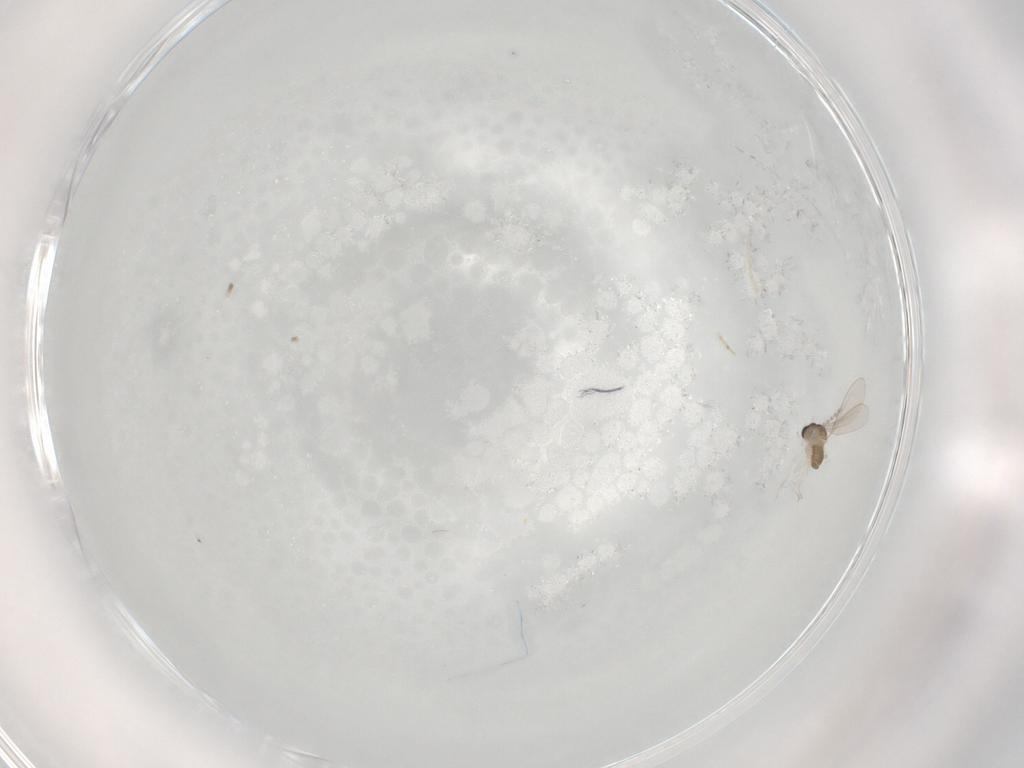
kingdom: Animalia
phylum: Arthropoda
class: Insecta
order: Diptera
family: Cecidomyiidae
